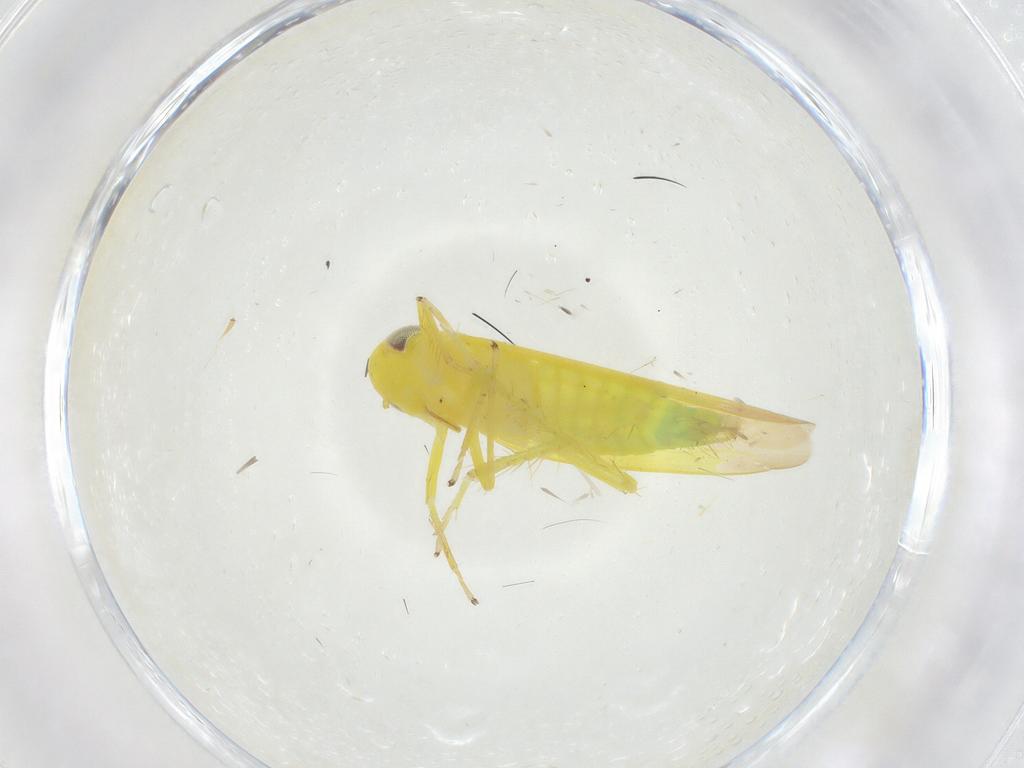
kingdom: Animalia
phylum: Arthropoda
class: Insecta
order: Hemiptera
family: Cicadellidae
